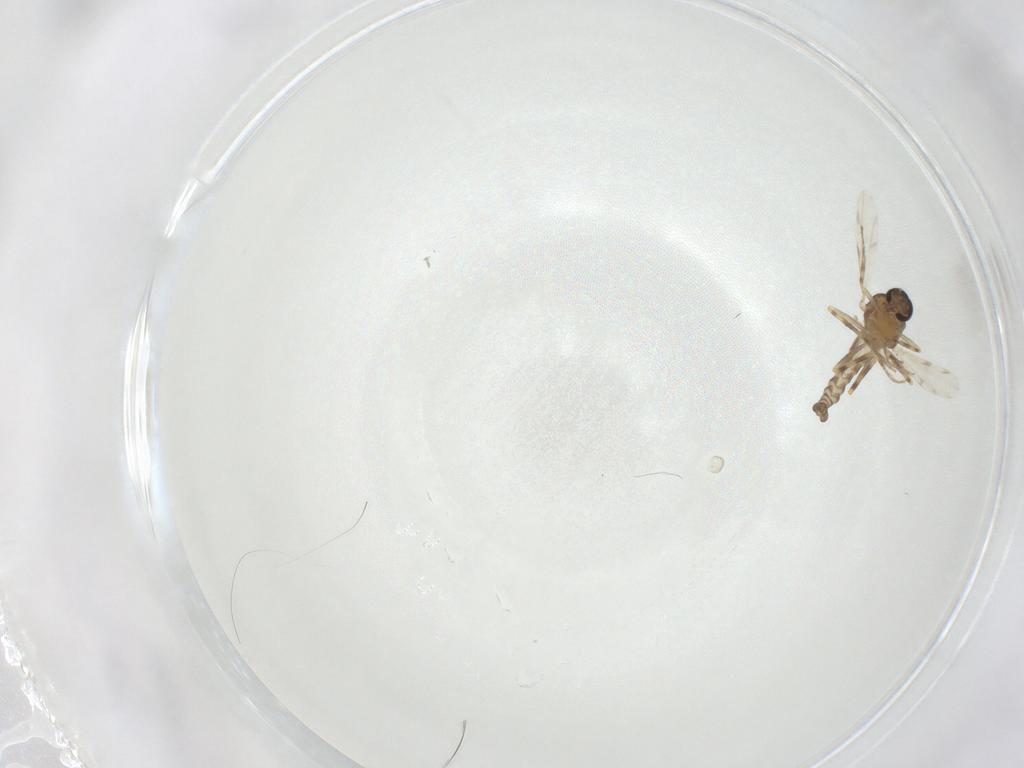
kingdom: Animalia
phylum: Arthropoda
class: Insecta
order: Diptera
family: Ceratopogonidae
